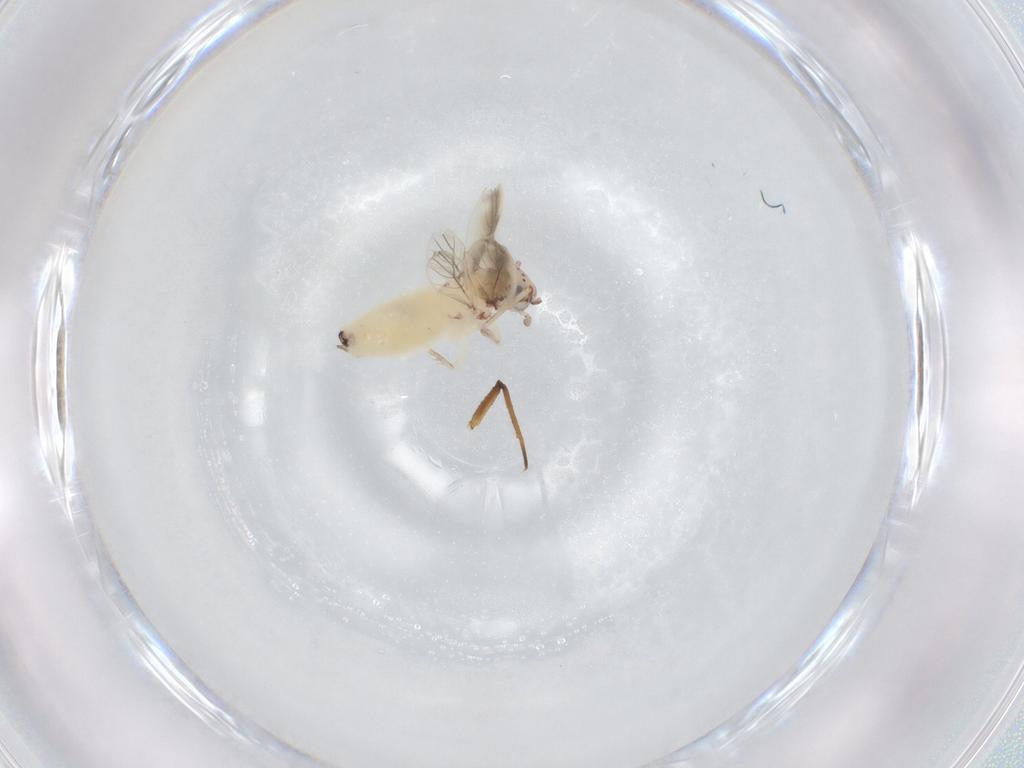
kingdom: Animalia
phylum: Arthropoda
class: Insecta
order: Psocodea
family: Lepidopsocidae
